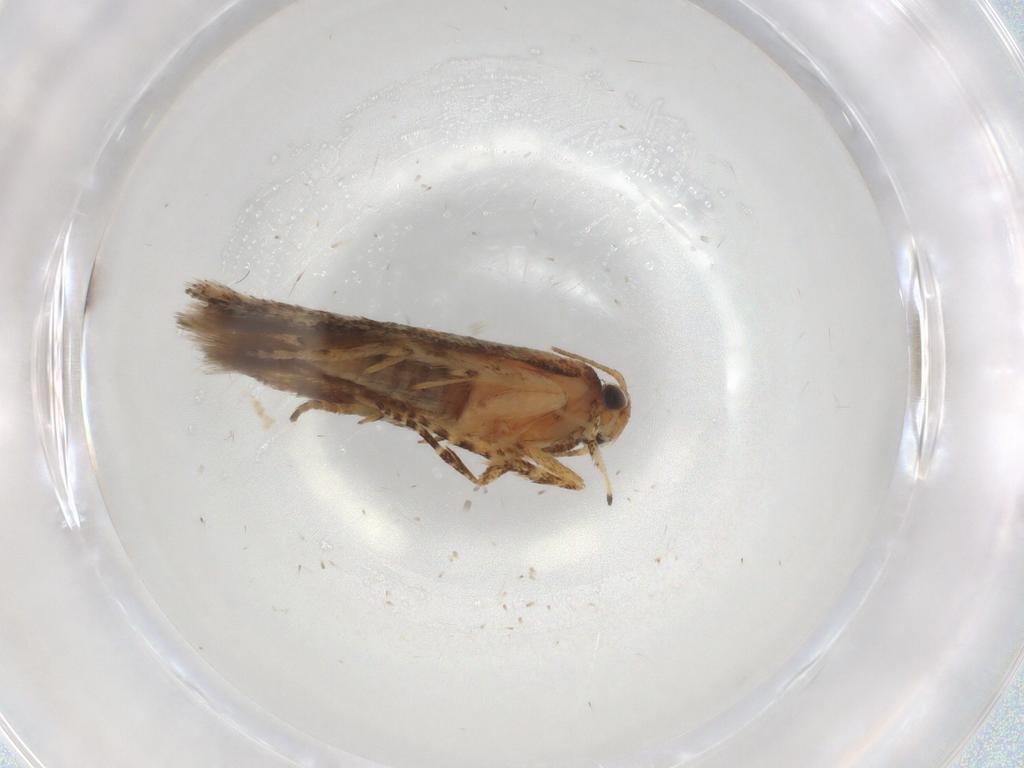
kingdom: Animalia
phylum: Arthropoda
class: Insecta
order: Lepidoptera
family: Gelechiidae
